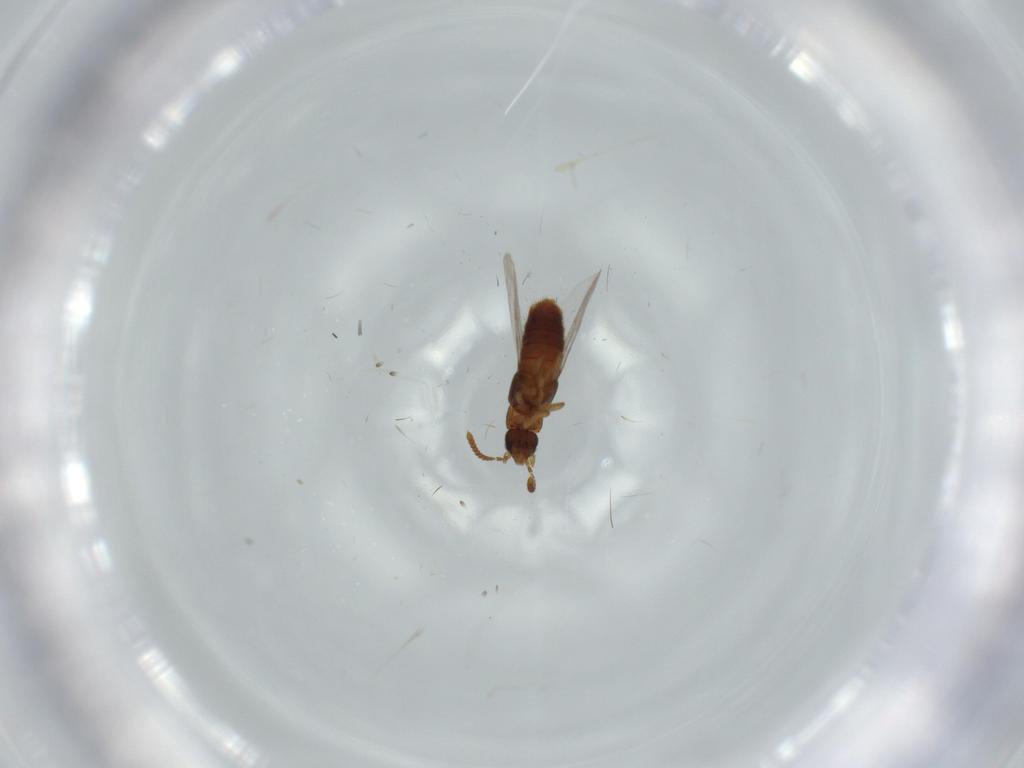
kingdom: Animalia
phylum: Arthropoda
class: Insecta
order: Coleoptera
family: Staphylinidae
